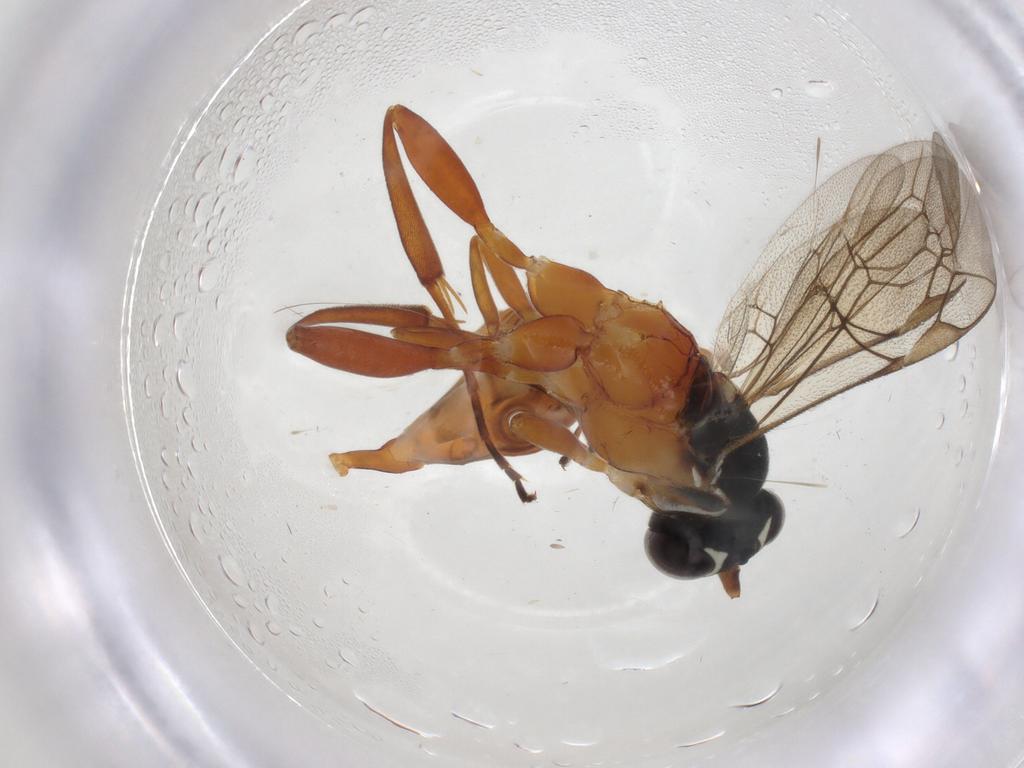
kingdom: Animalia
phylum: Arthropoda
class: Insecta
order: Hymenoptera
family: Ichneumonidae
